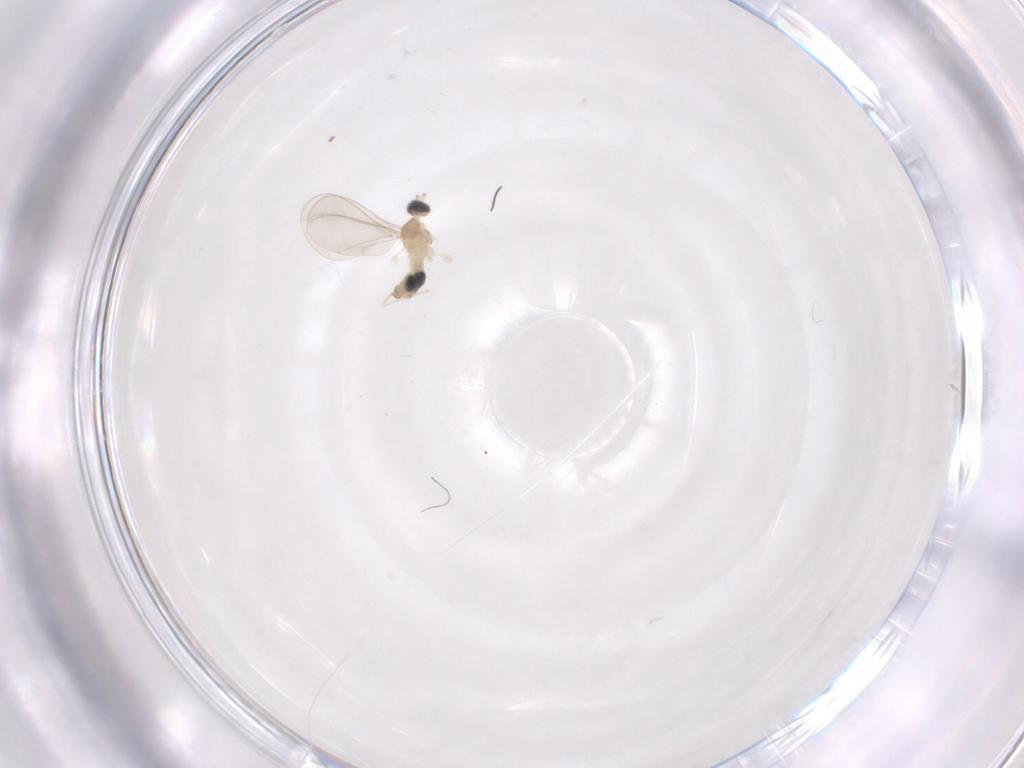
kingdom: Animalia
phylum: Arthropoda
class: Insecta
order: Diptera
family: Cecidomyiidae
